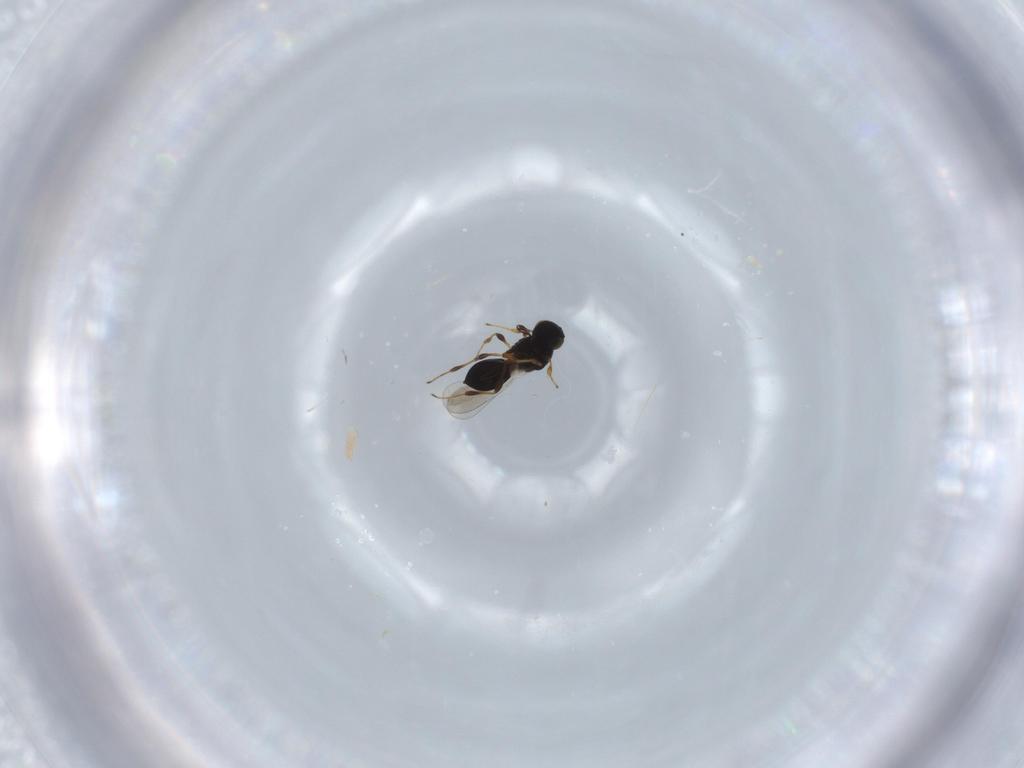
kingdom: Animalia
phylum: Arthropoda
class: Insecta
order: Hymenoptera
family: Platygastridae
